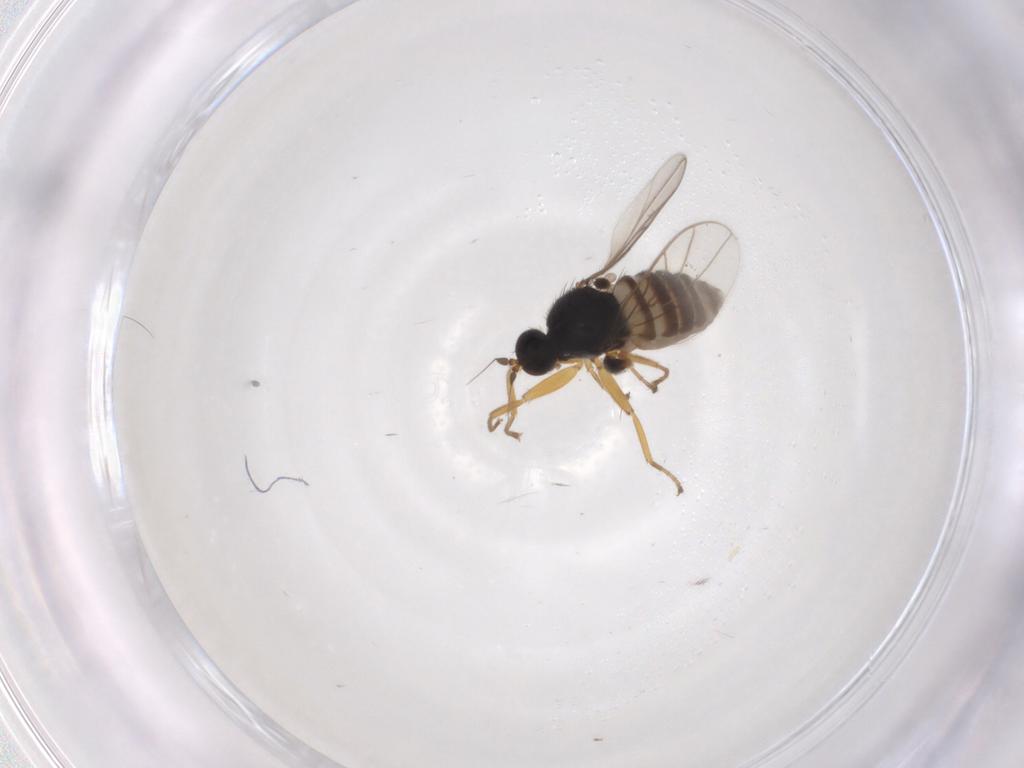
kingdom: Animalia
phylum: Arthropoda
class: Insecta
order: Diptera
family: Hybotidae
